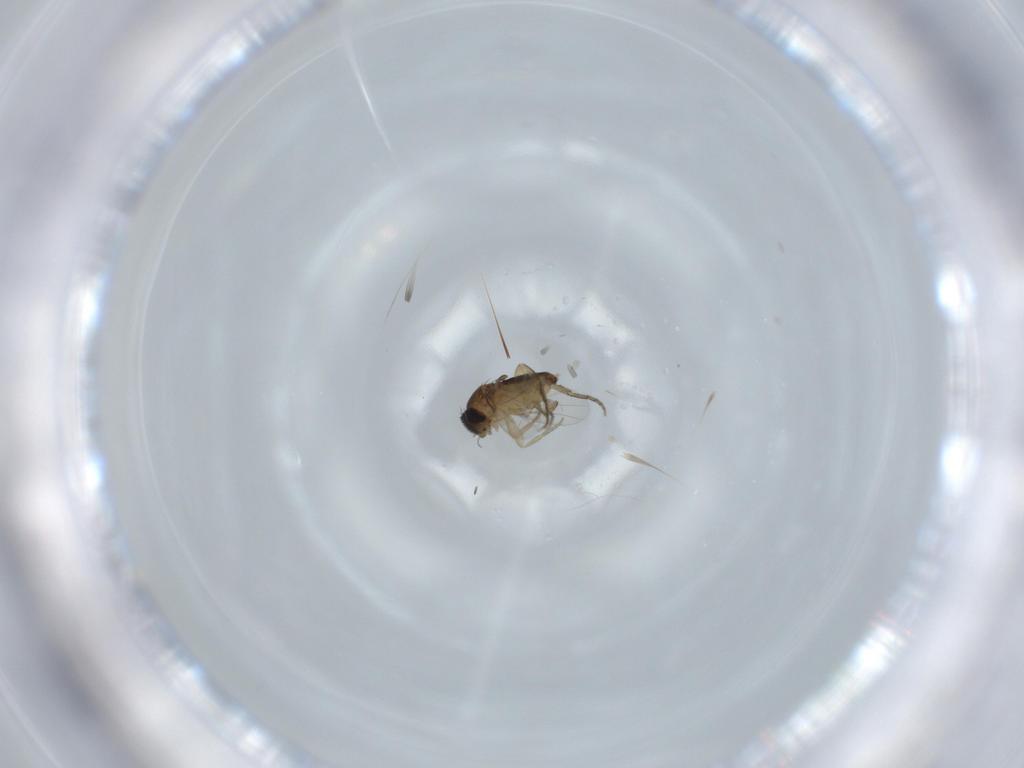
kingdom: Animalia
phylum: Arthropoda
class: Insecta
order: Diptera
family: Phoridae
